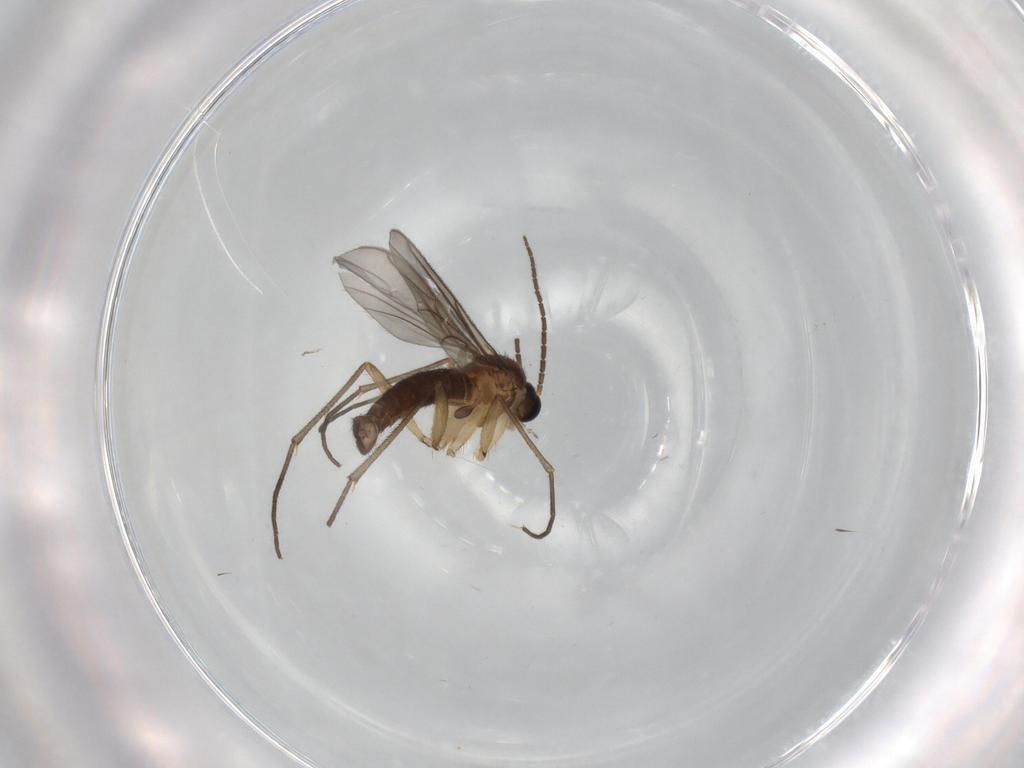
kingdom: Animalia
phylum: Arthropoda
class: Insecta
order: Diptera
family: Sciaridae
